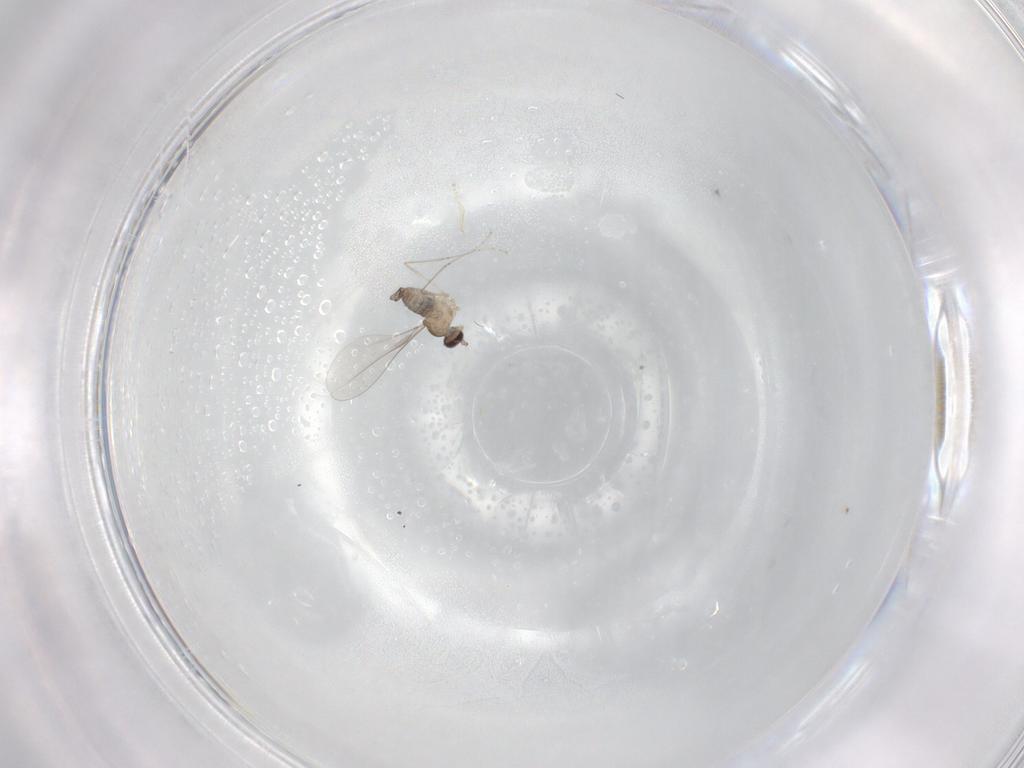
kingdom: Animalia
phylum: Arthropoda
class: Insecta
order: Diptera
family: Cecidomyiidae
